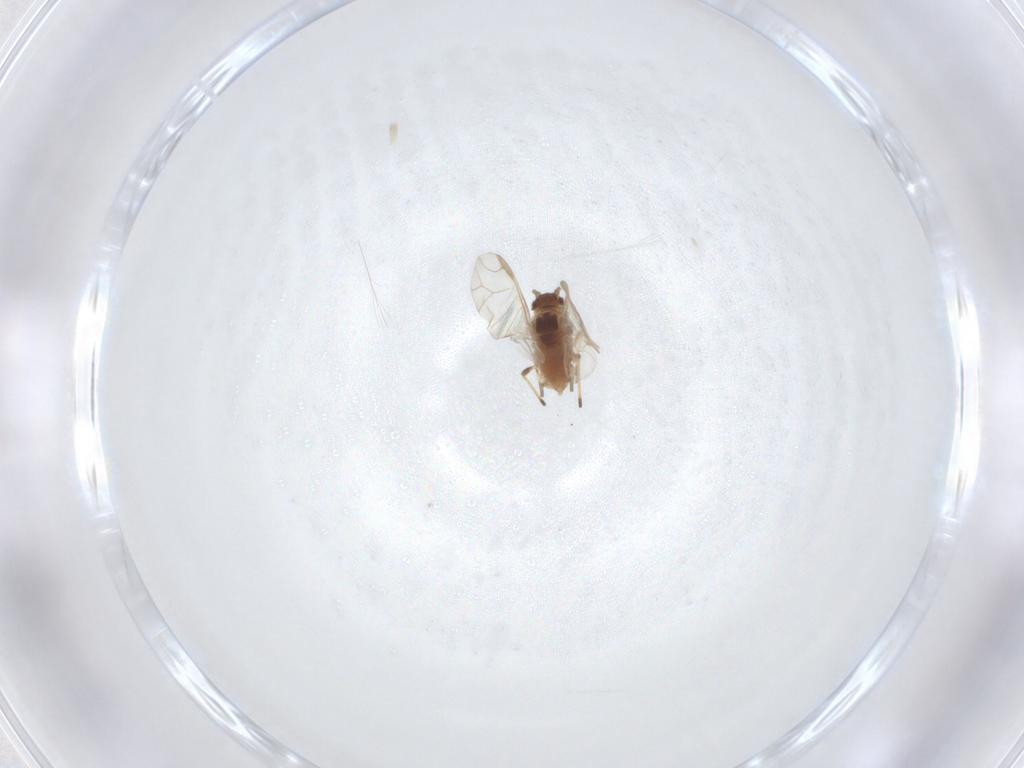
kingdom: Animalia
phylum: Arthropoda
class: Insecta
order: Hemiptera
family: Aphididae
